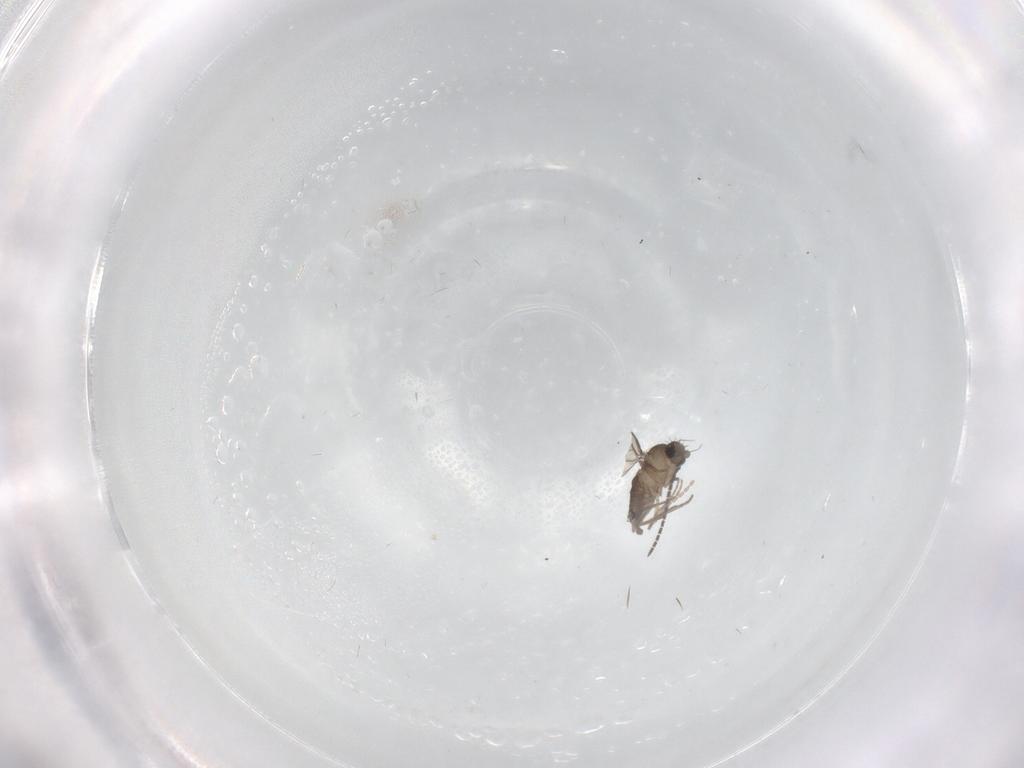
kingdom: Animalia
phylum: Arthropoda
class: Insecta
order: Diptera
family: Sciaridae
